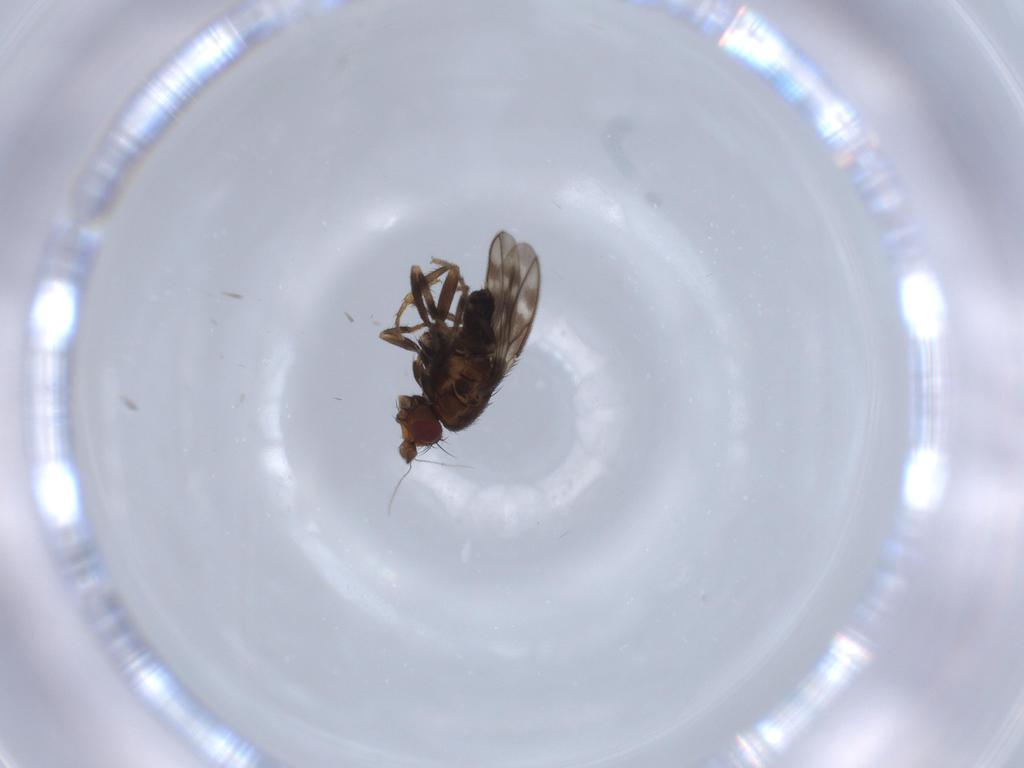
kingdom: Animalia
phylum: Arthropoda
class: Insecta
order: Diptera
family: Sphaeroceridae
